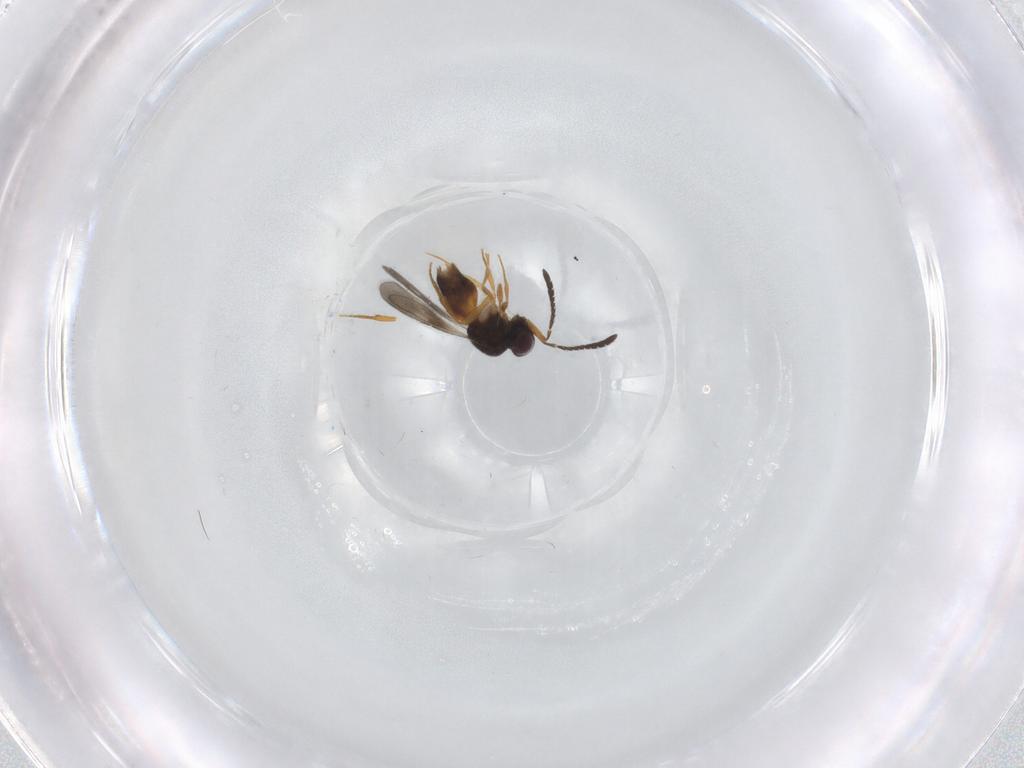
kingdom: Animalia
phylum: Arthropoda
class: Insecta
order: Hymenoptera
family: Ceraphronidae
